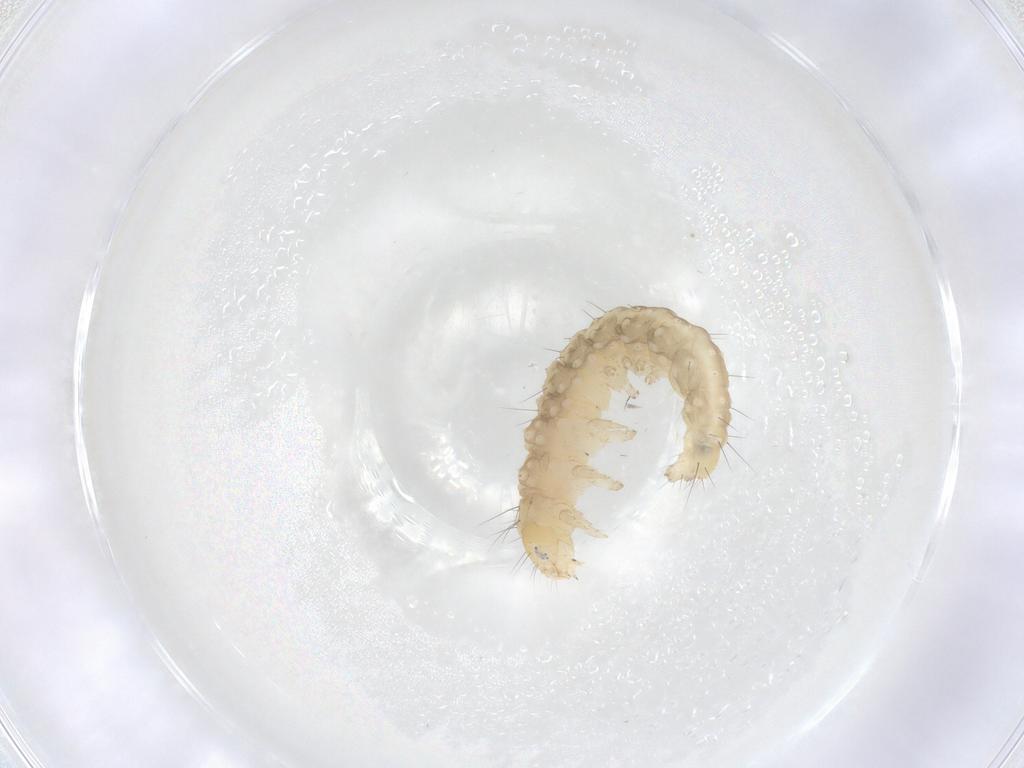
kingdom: Animalia
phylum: Arthropoda
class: Insecta
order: Lepidoptera
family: Gelechiidae
